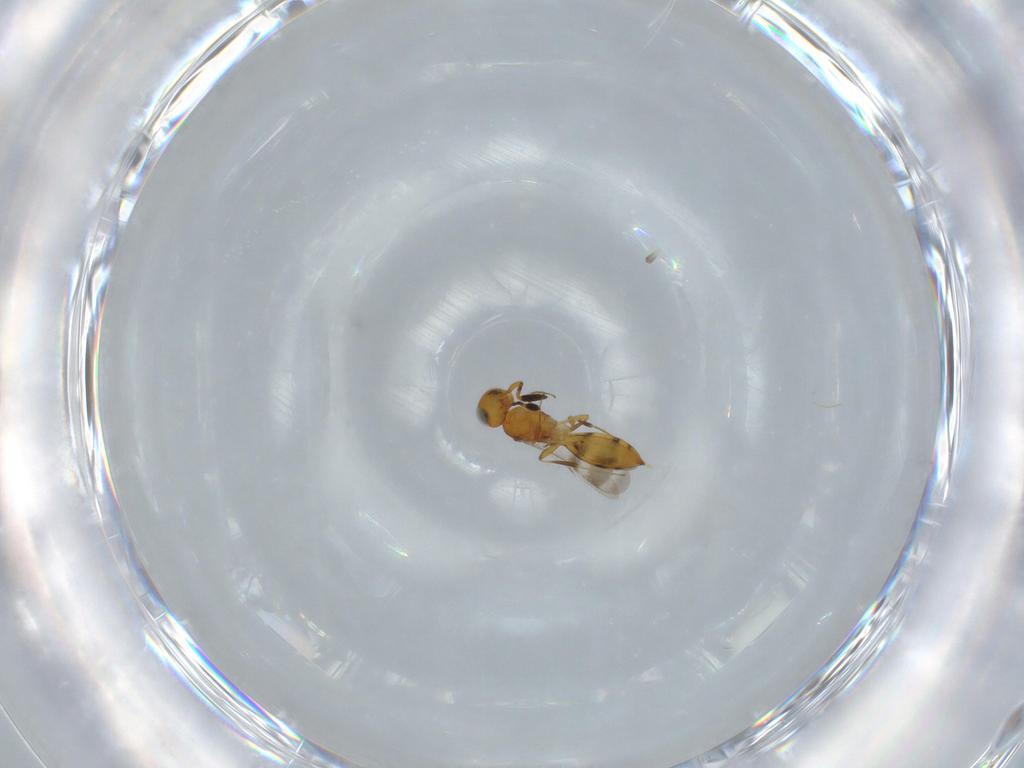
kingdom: Animalia
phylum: Arthropoda
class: Insecta
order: Hymenoptera
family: Scelionidae
